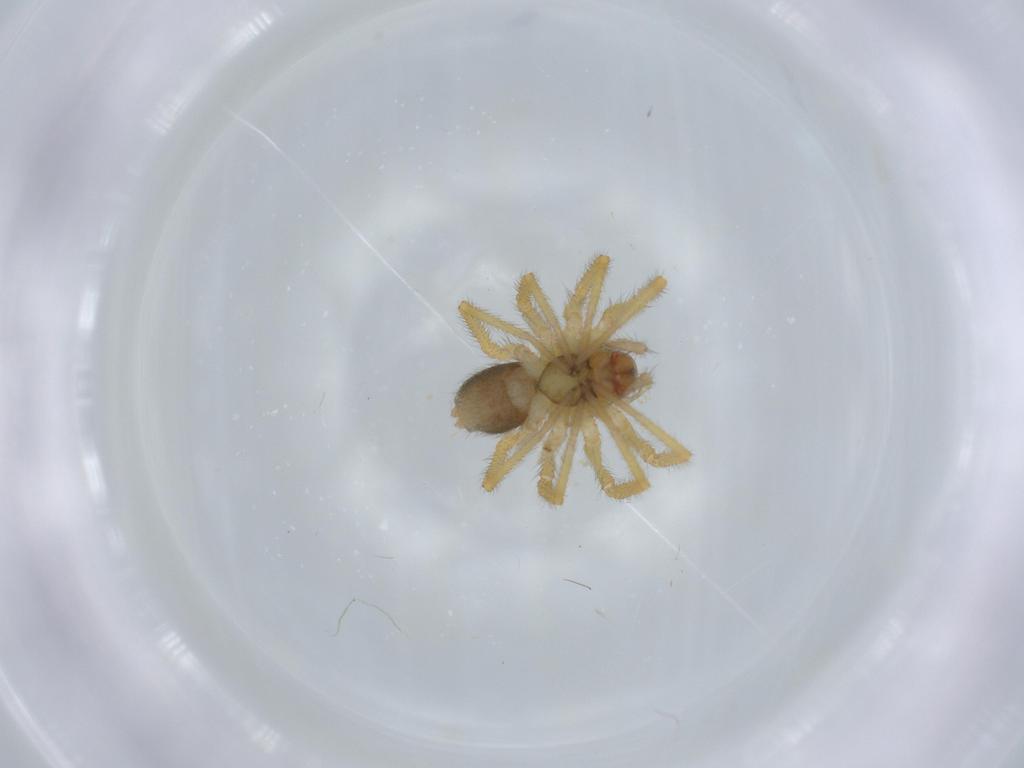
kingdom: Animalia
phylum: Arthropoda
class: Arachnida
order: Araneae
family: Linyphiidae
